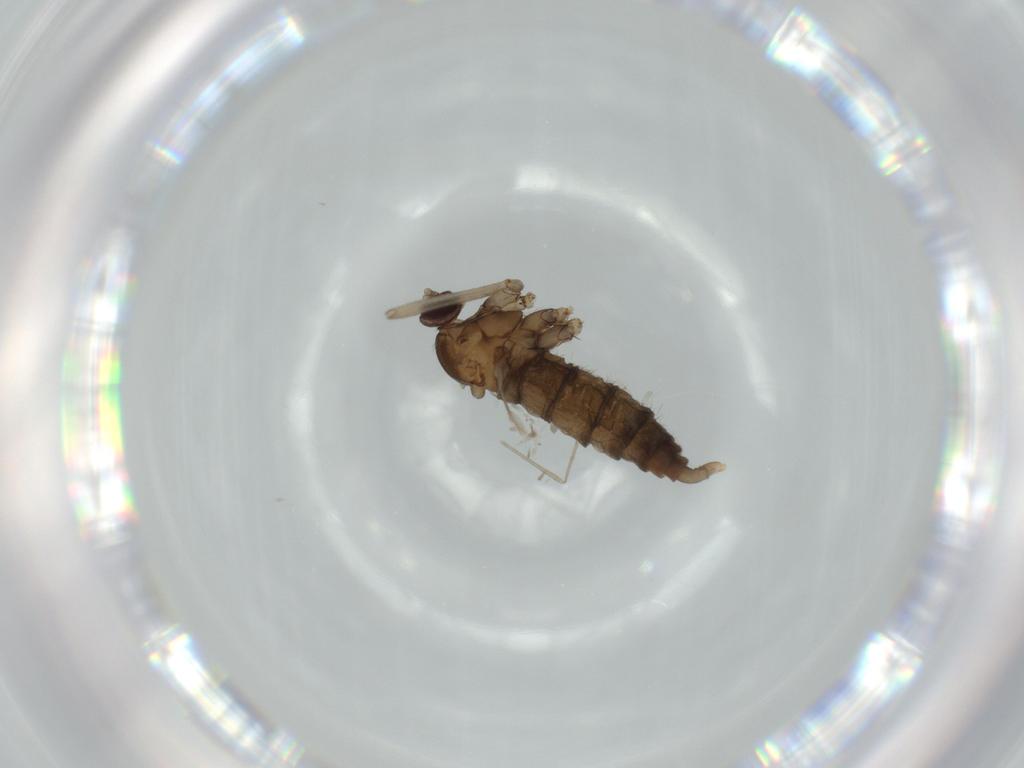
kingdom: Animalia
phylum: Arthropoda
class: Insecta
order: Diptera
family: Cecidomyiidae
